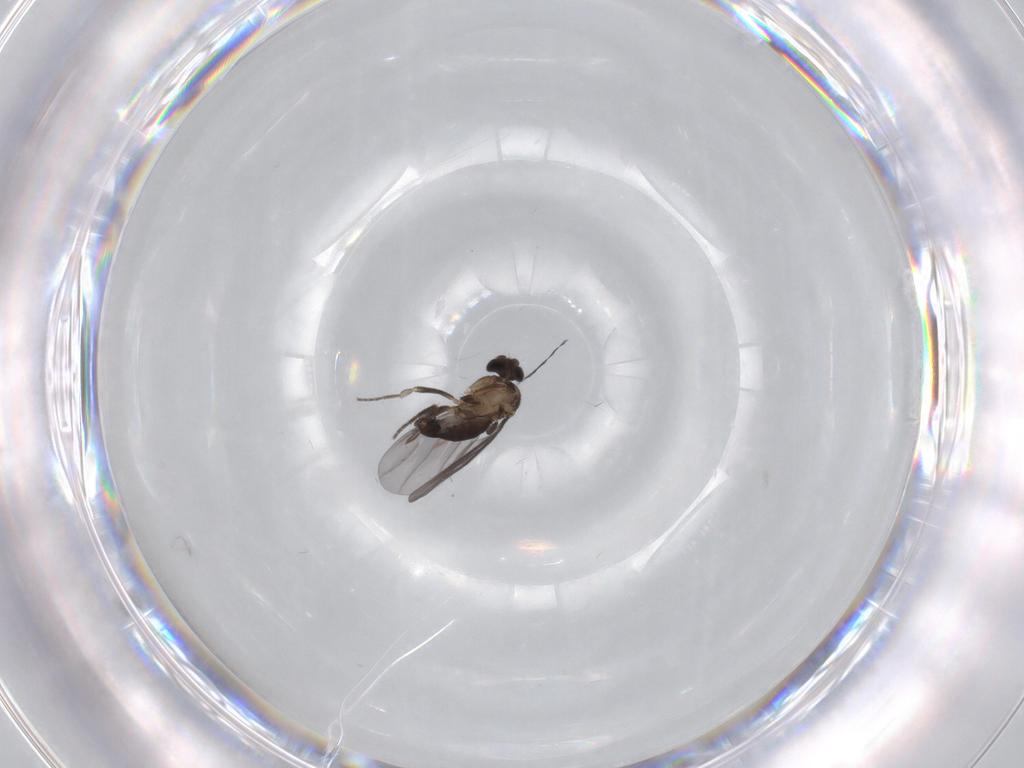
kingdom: Animalia
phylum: Arthropoda
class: Insecta
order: Diptera
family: Phoridae
